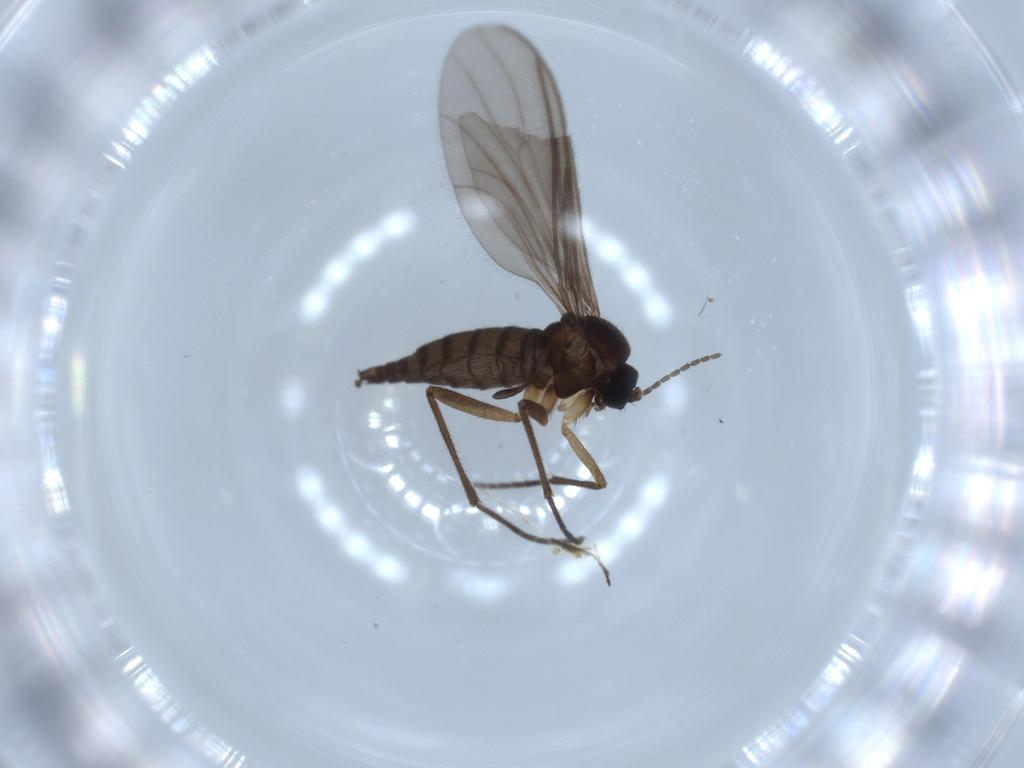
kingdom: Animalia
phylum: Arthropoda
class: Insecta
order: Diptera
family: Sciaridae
